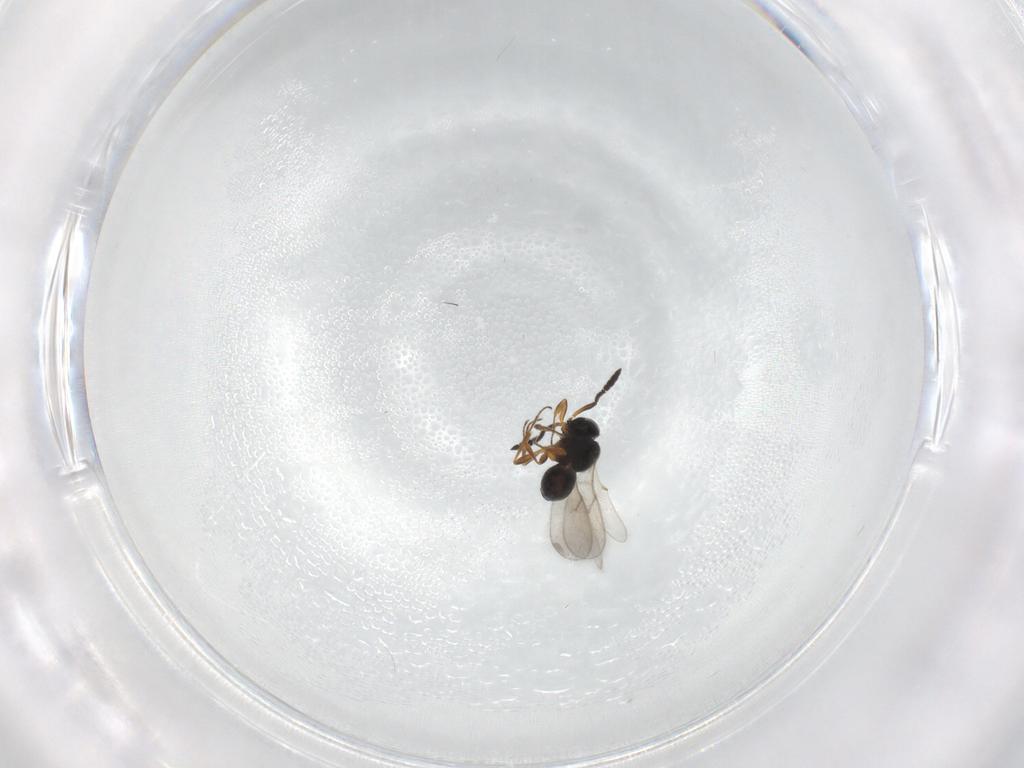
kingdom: Animalia
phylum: Arthropoda
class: Insecta
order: Hymenoptera
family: Scelionidae
